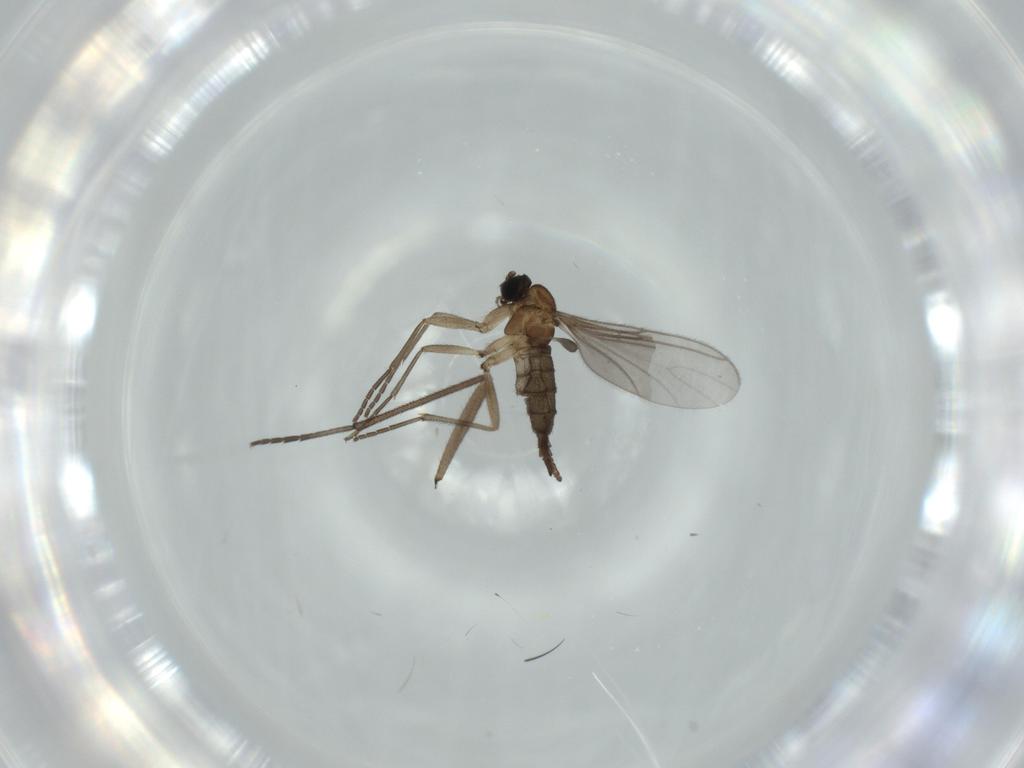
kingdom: Animalia
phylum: Arthropoda
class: Insecta
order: Diptera
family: Sciaridae
